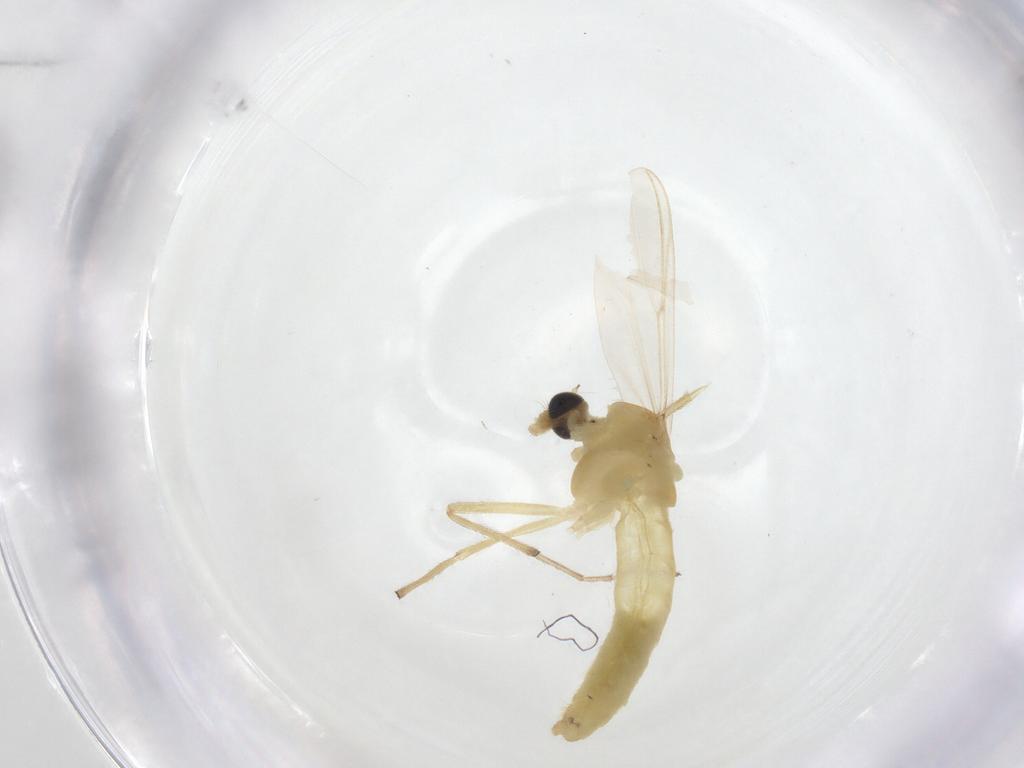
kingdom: Animalia
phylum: Arthropoda
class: Insecta
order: Diptera
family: Chironomidae
